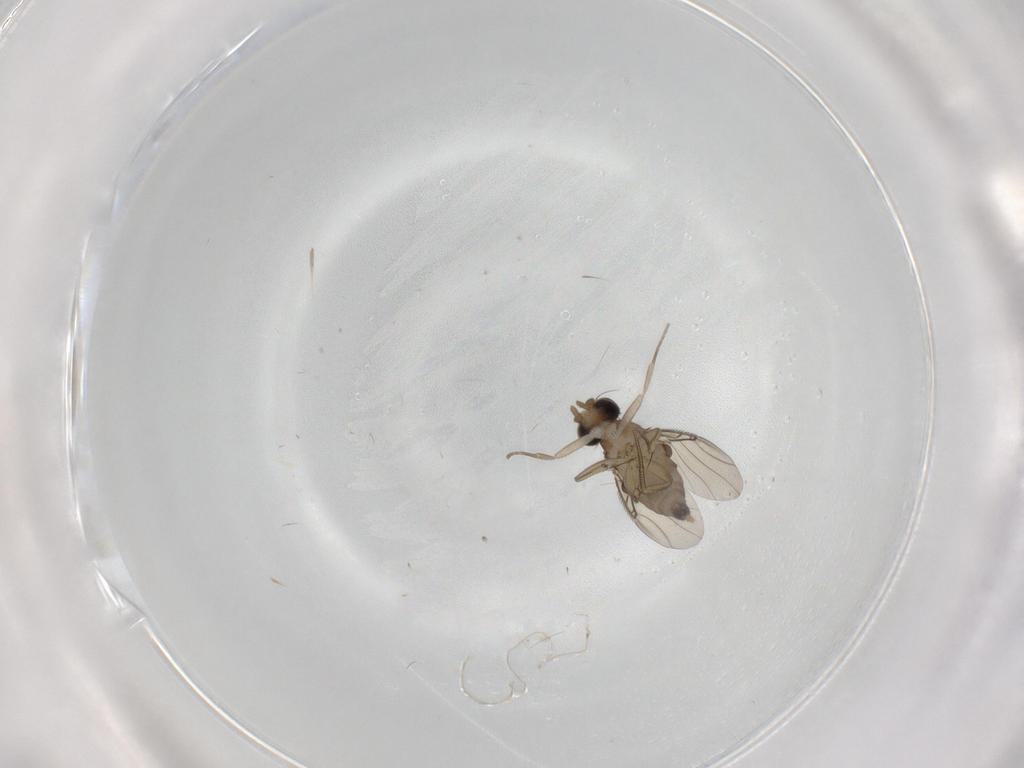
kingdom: Animalia
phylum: Arthropoda
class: Insecta
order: Diptera
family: Phoridae
